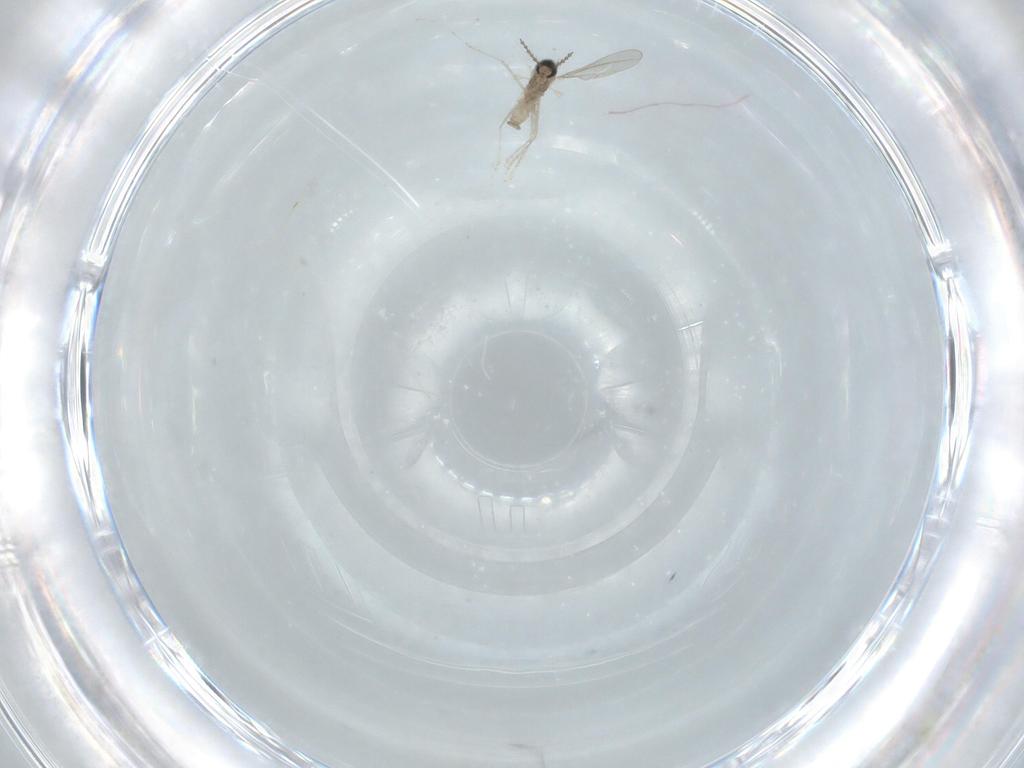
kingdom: Animalia
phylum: Arthropoda
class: Insecta
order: Diptera
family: Cecidomyiidae
